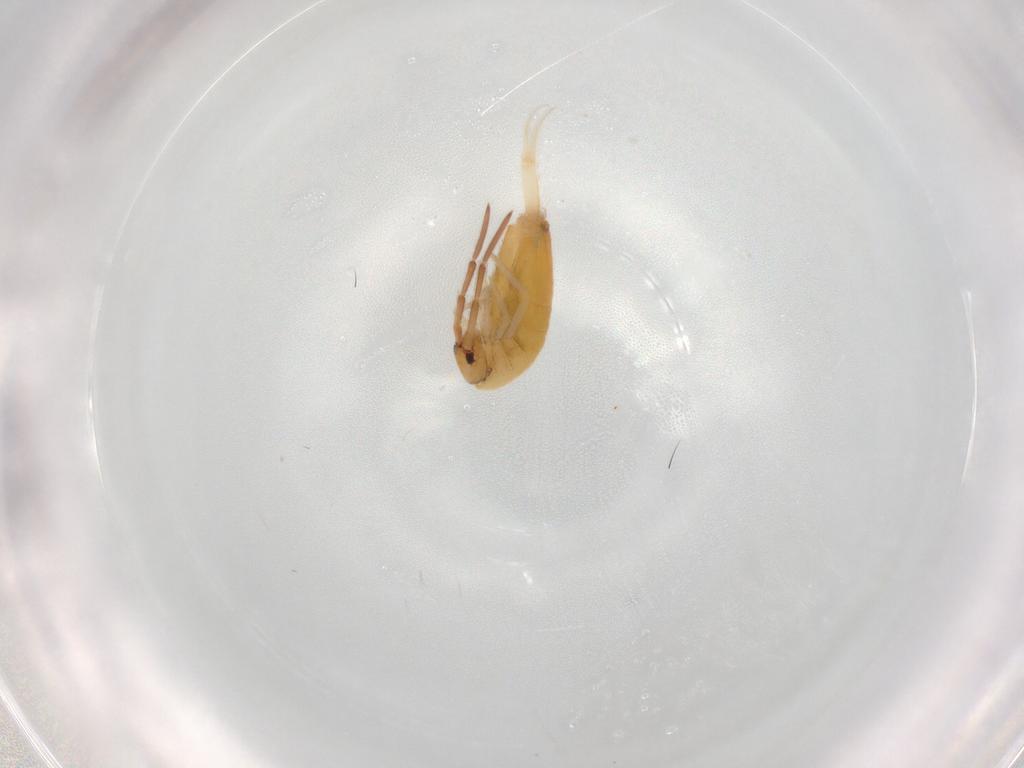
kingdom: Animalia
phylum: Arthropoda
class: Collembola
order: Entomobryomorpha
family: Entomobryidae
